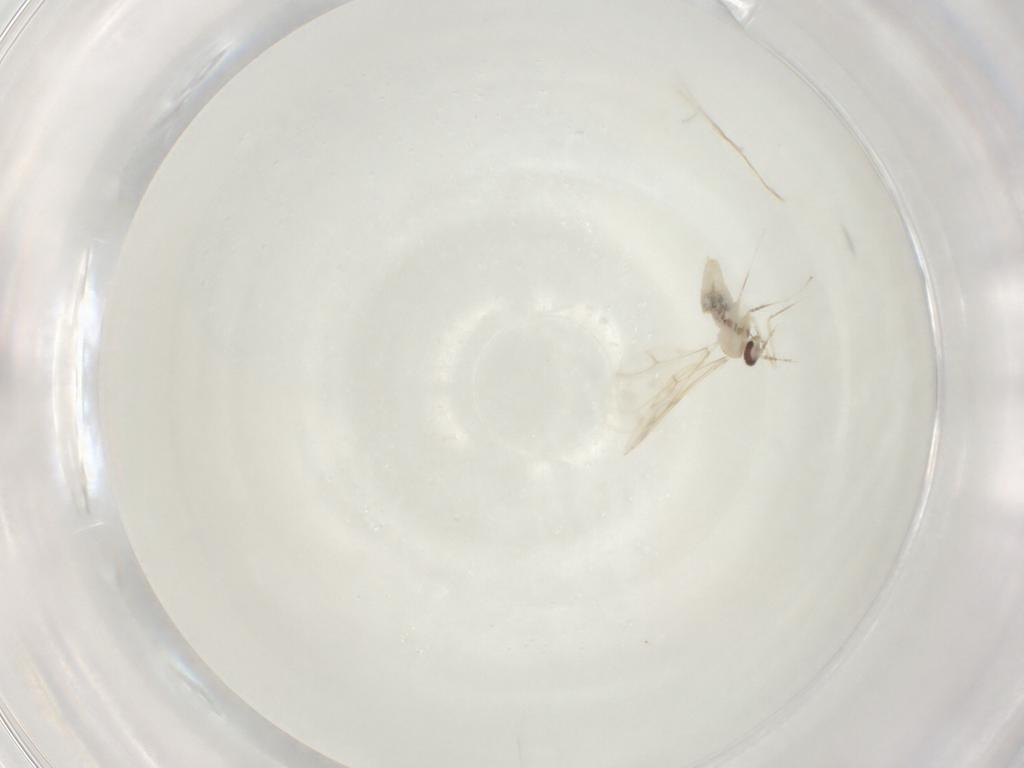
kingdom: Animalia
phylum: Arthropoda
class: Insecta
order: Diptera
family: Cecidomyiidae
